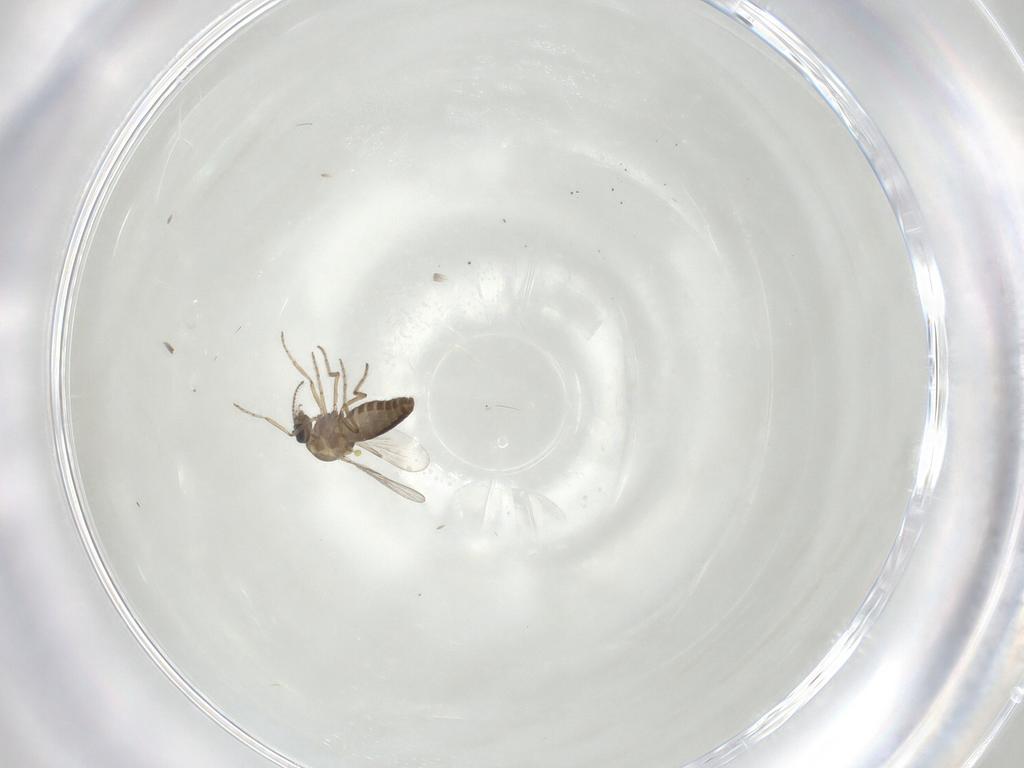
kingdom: Animalia
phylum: Arthropoda
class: Insecta
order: Diptera
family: Ceratopogonidae
